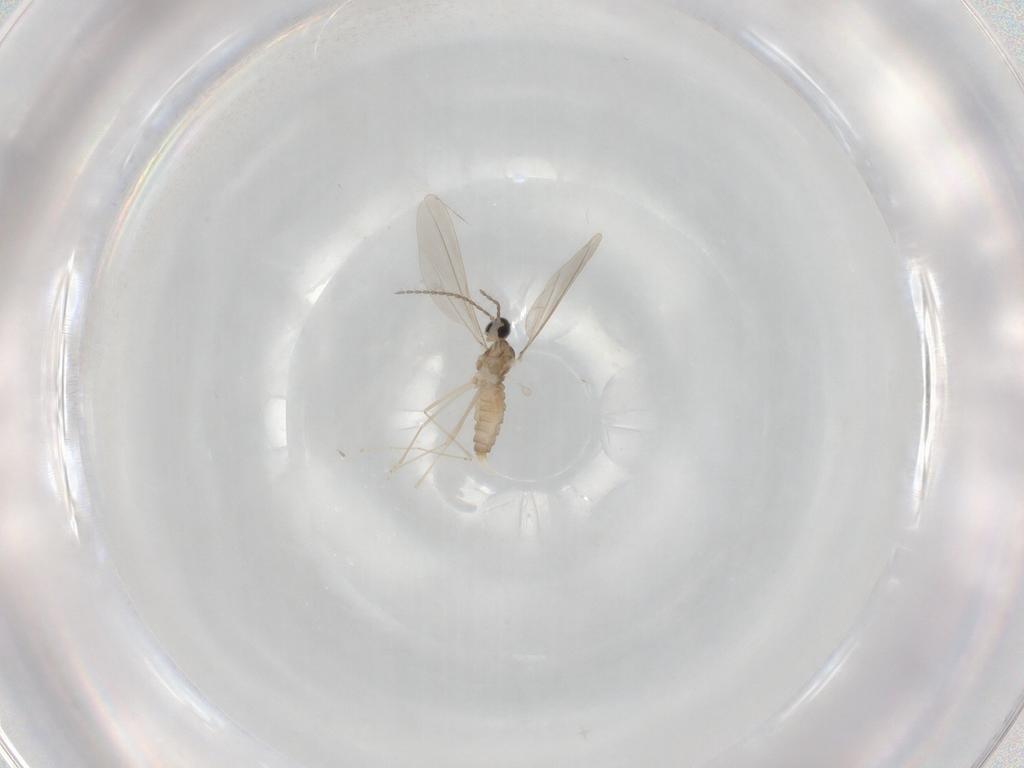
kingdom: Animalia
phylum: Arthropoda
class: Insecta
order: Diptera
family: Cecidomyiidae
